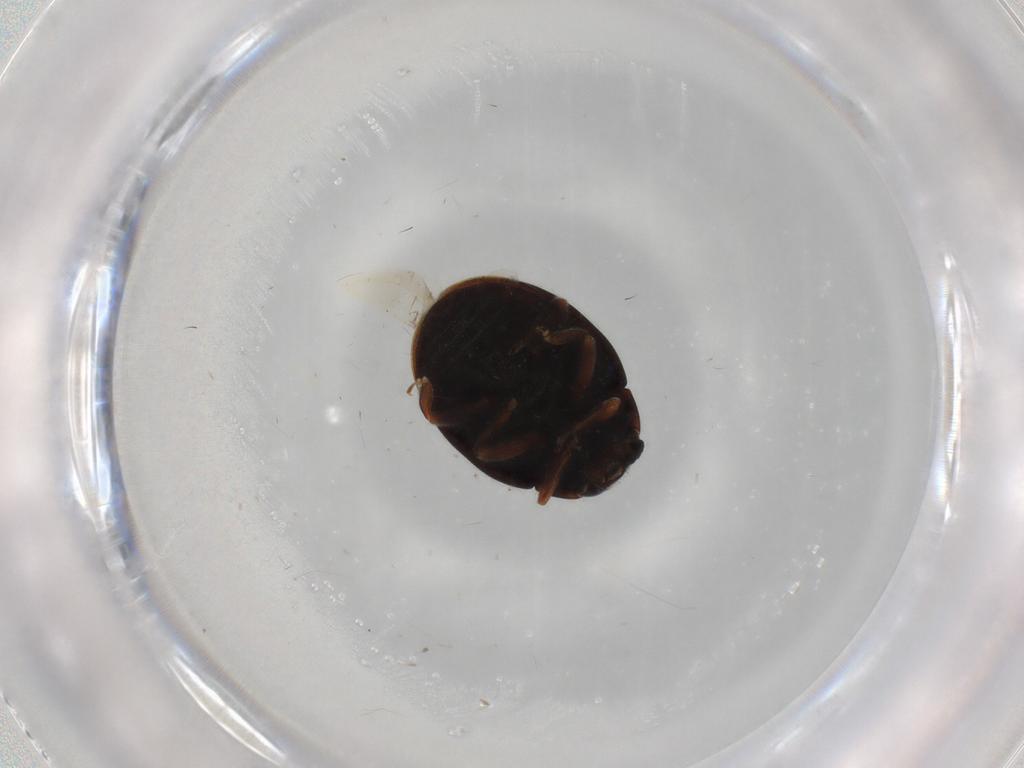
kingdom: Animalia
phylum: Arthropoda
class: Insecta
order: Coleoptera
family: Coccinellidae
